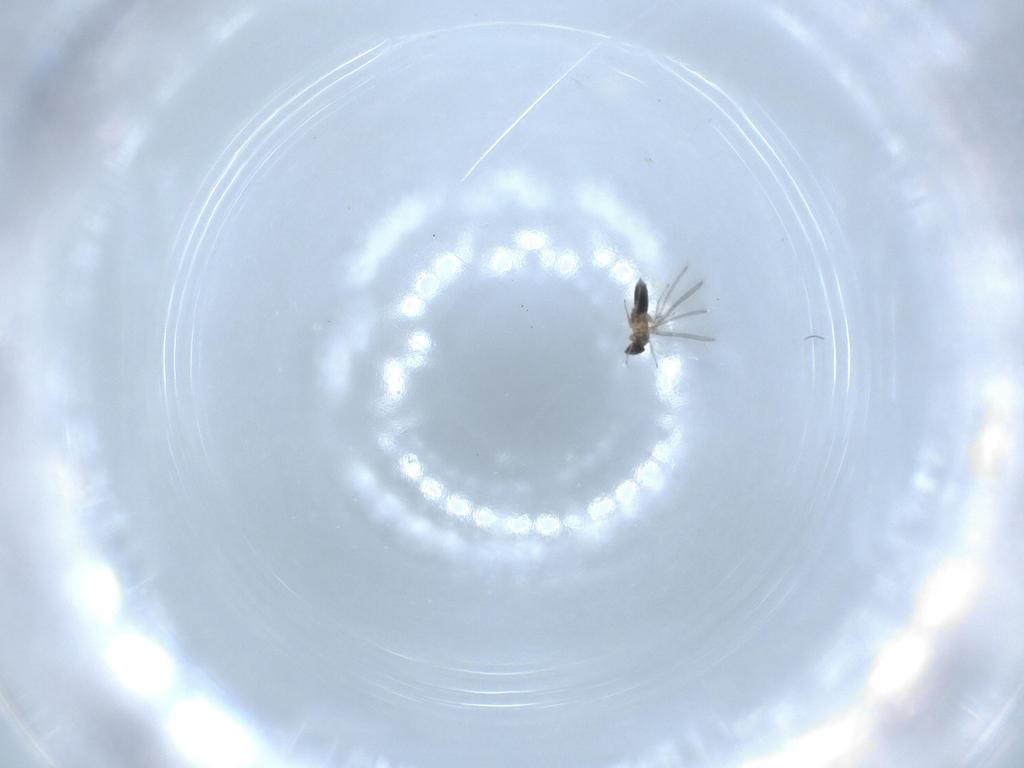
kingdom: Animalia
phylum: Arthropoda
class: Insecta
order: Hymenoptera
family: Mymaridae
